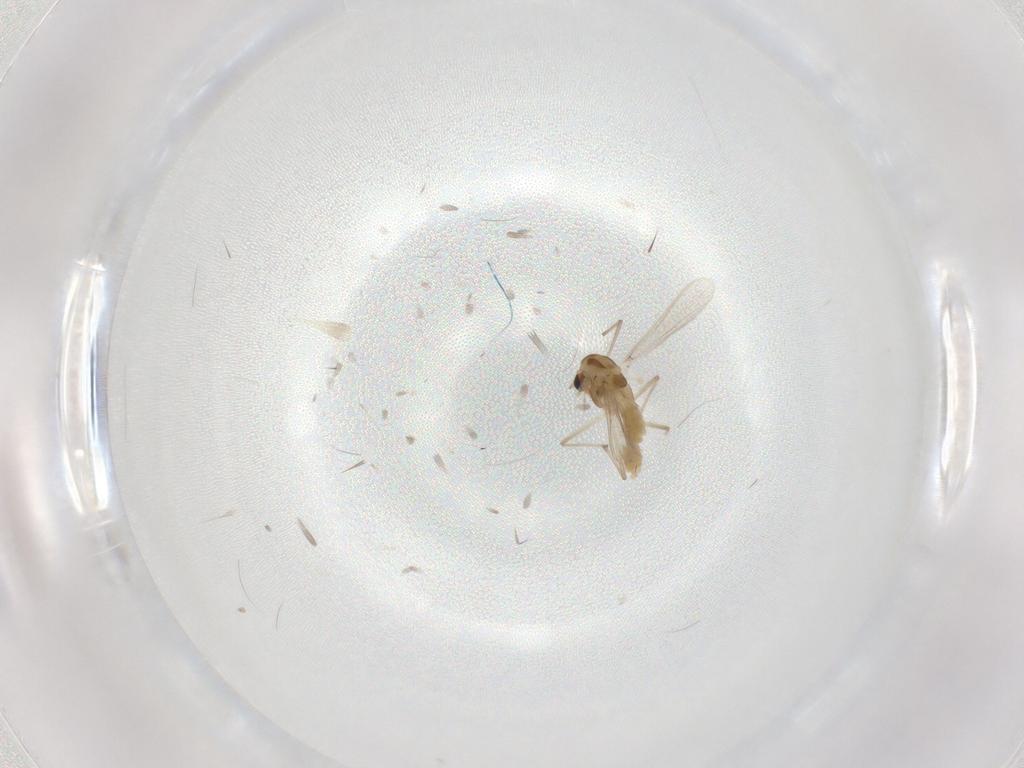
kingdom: Animalia
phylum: Arthropoda
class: Insecta
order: Diptera
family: Chironomidae
